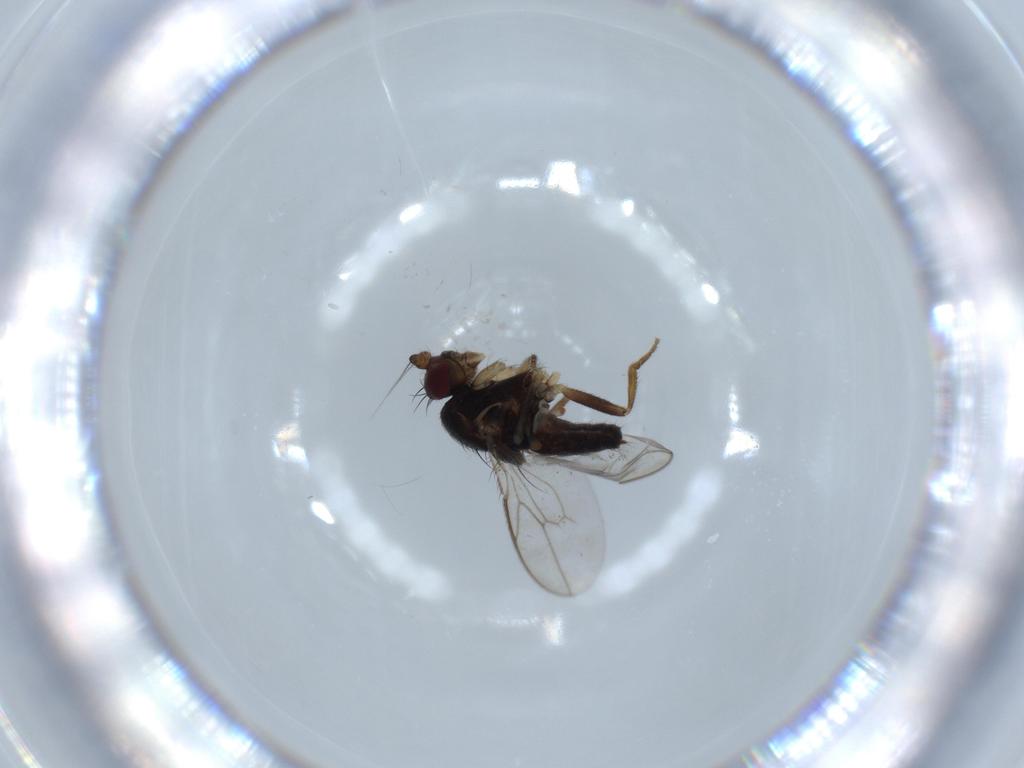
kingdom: Animalia
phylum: Arthropoda
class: Insecta
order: Diptera
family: Sphaeroceridae
